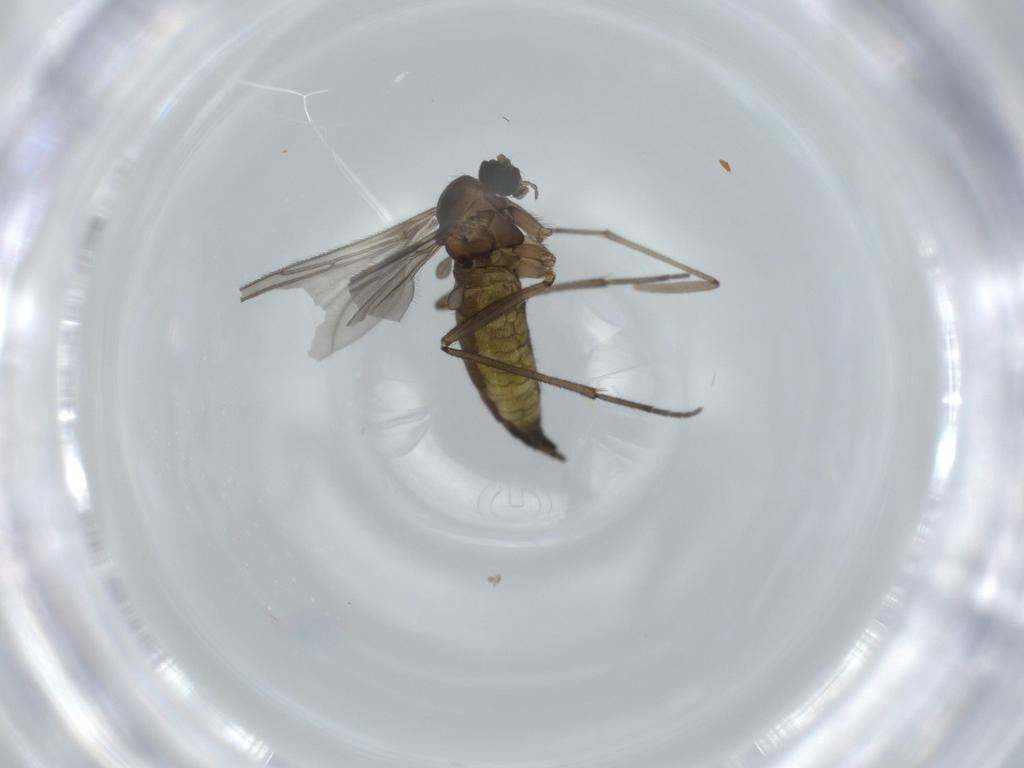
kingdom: Animalia
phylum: Arthropoda
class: Insecta
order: Diptera
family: Sciaridae
